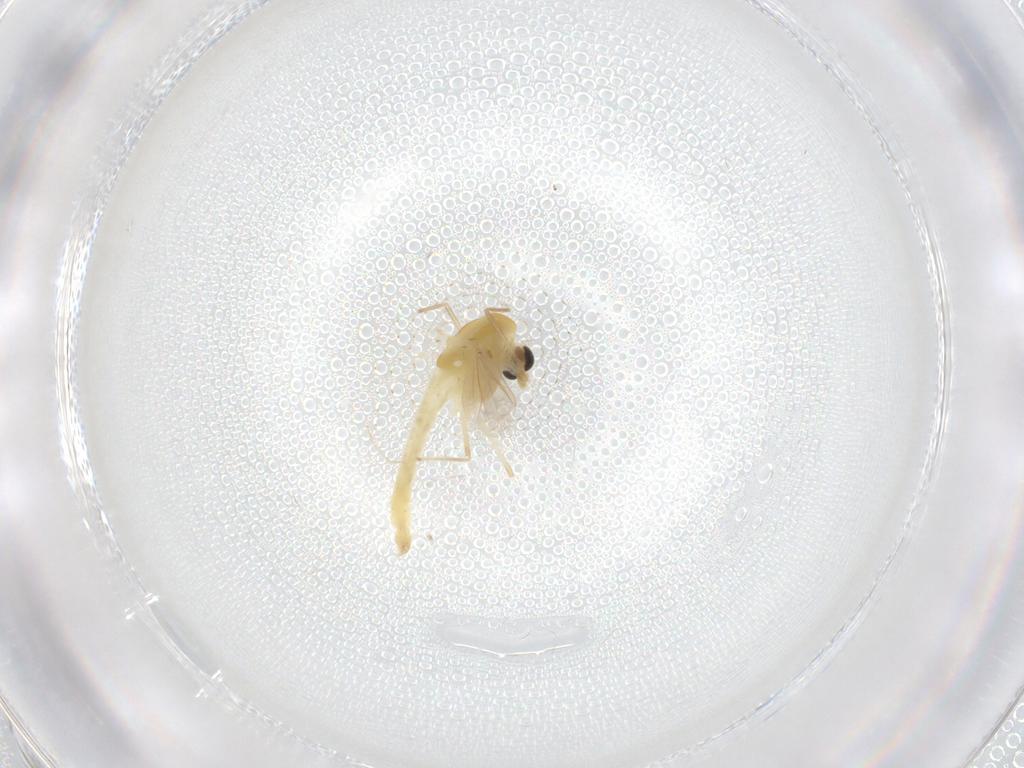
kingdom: Animalia
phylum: Arthropoda
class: Insecta
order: Diptera
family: Chironomidae
